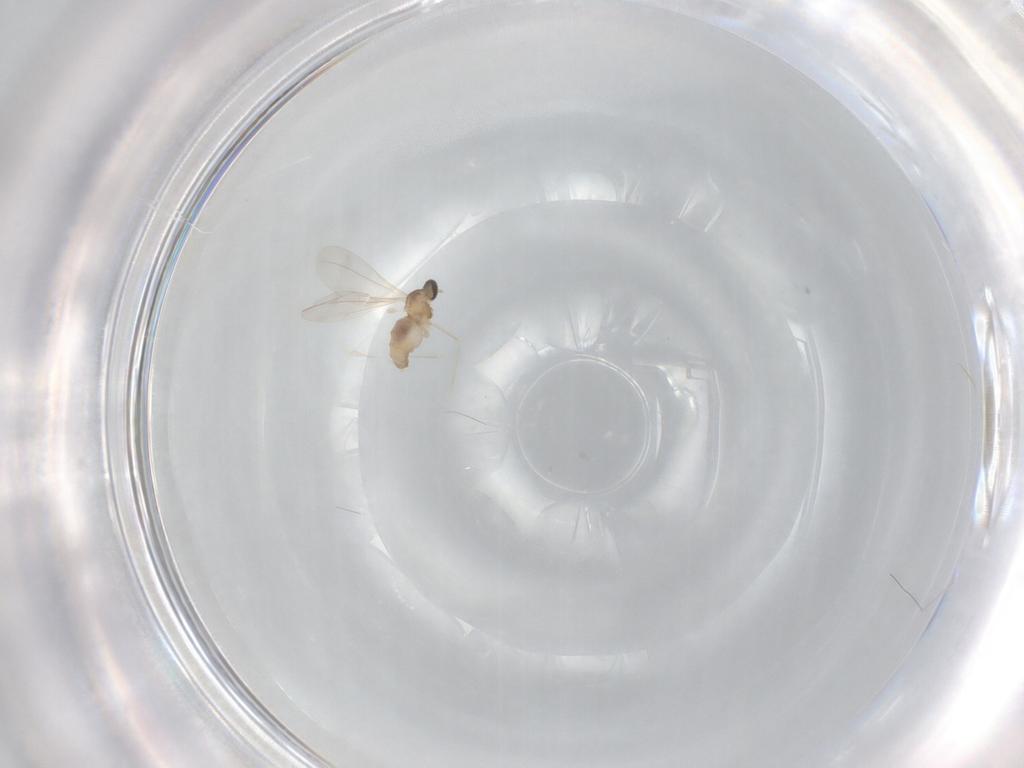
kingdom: Animalia
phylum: Arthropoda
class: Insecta
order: Diptera
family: Cecidomyiidae
